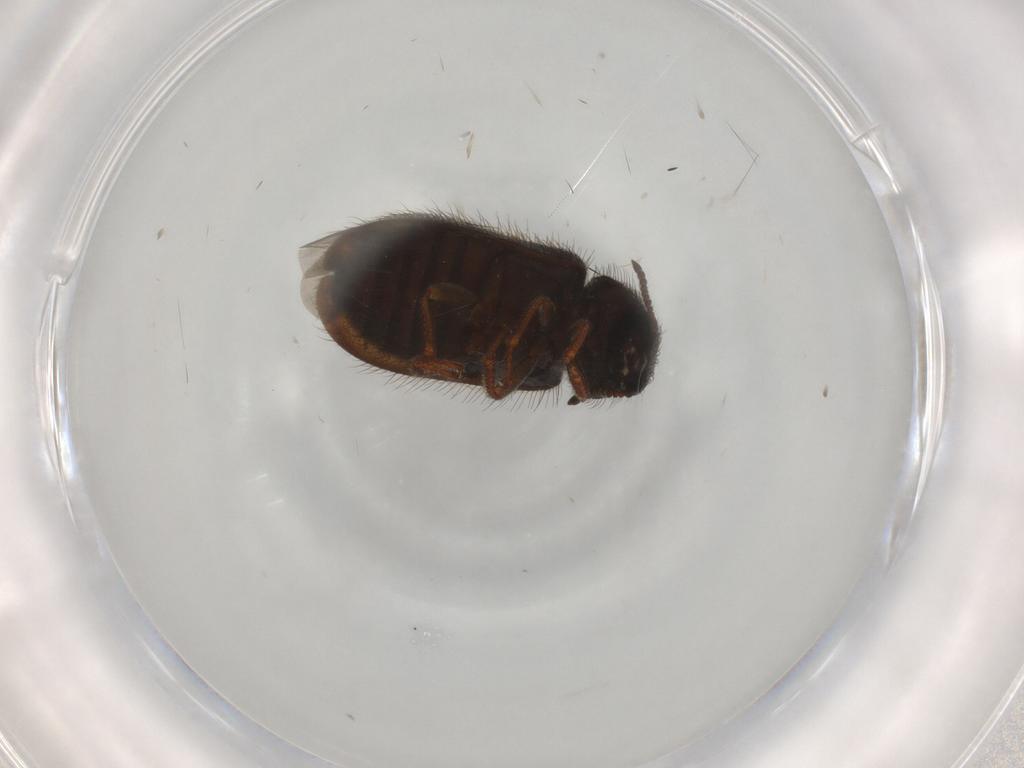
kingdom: Animalia
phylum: Arthropoda
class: Insecta
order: Coleoptera
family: Melyridae
